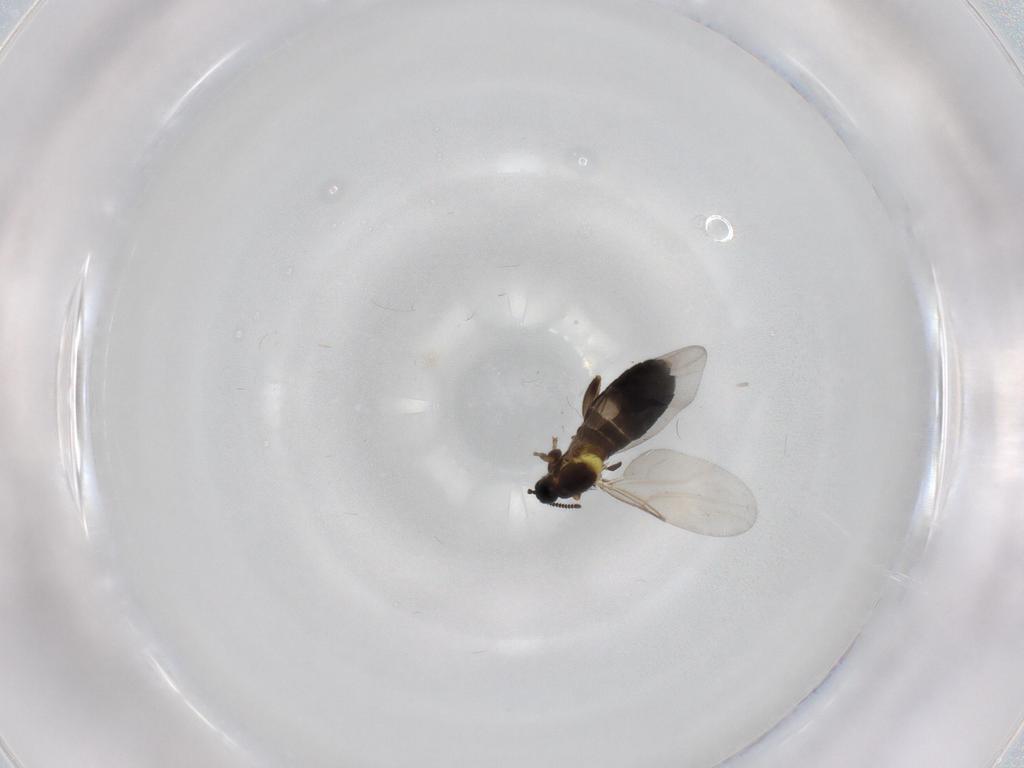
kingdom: Animalia
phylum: Arthropoda
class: Insecta
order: Diptera
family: Scatopsidae
